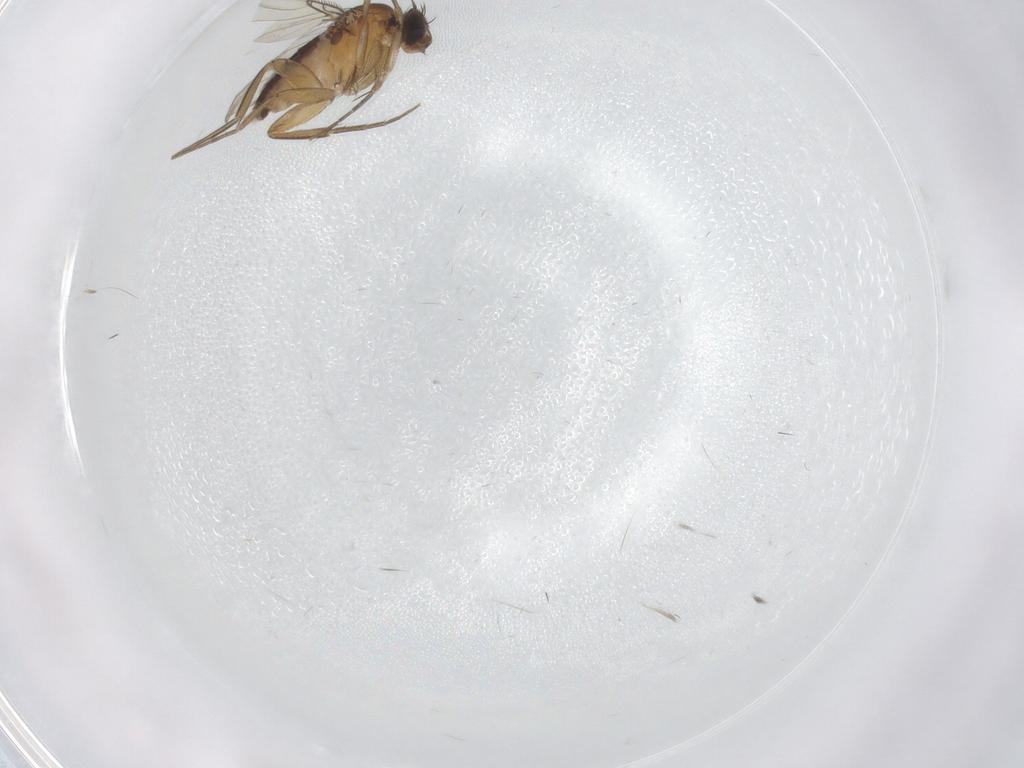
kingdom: Animalia
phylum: Arthropoda
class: Insecta
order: Diptera
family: Phoridae
